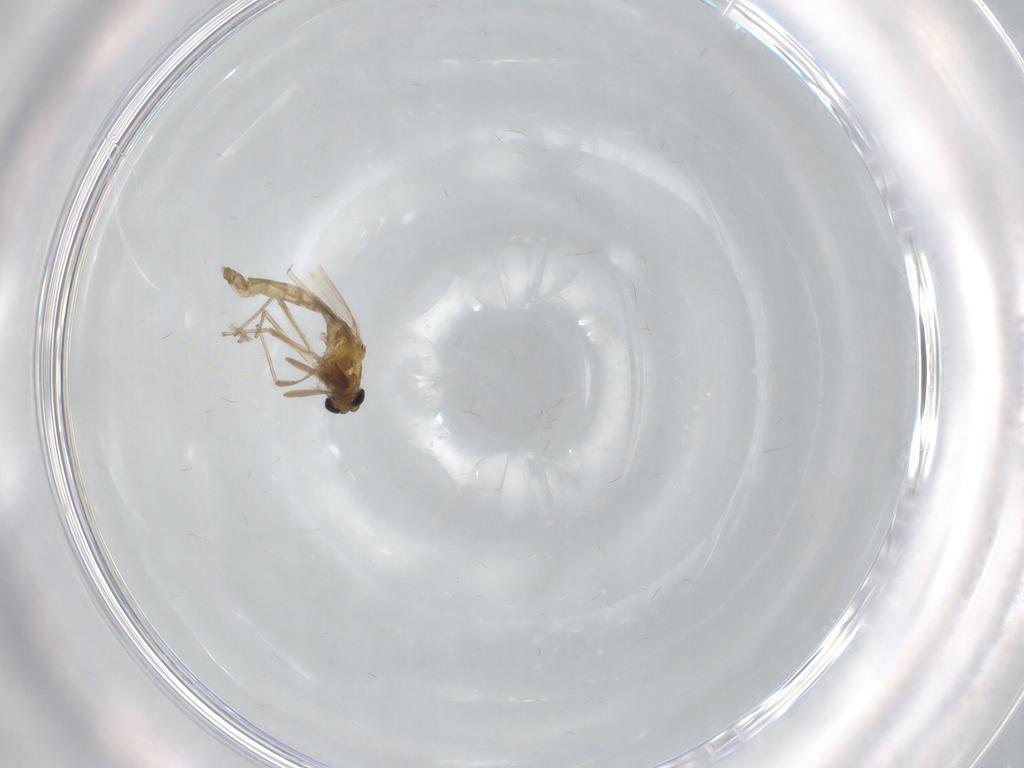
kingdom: Animalia
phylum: Arthropoda
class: Insecta
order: Diptera
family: Chironomidae
